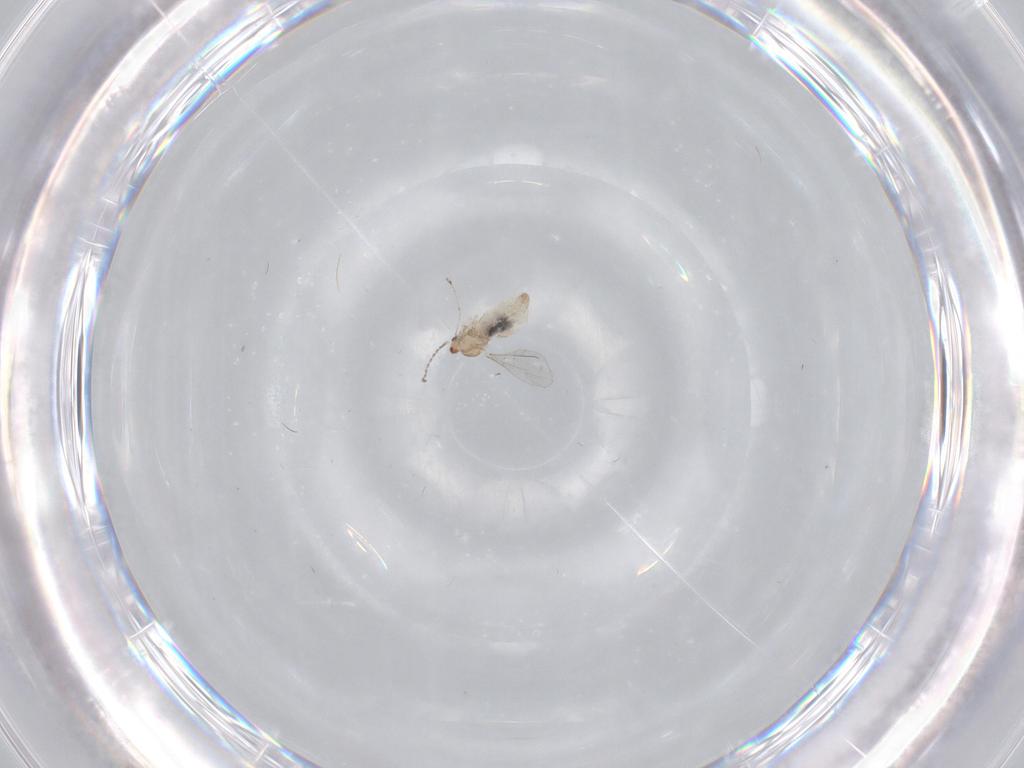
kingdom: Animalia
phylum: Arthropoda
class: Insecta
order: Diptera
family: Cecidomyiidae
